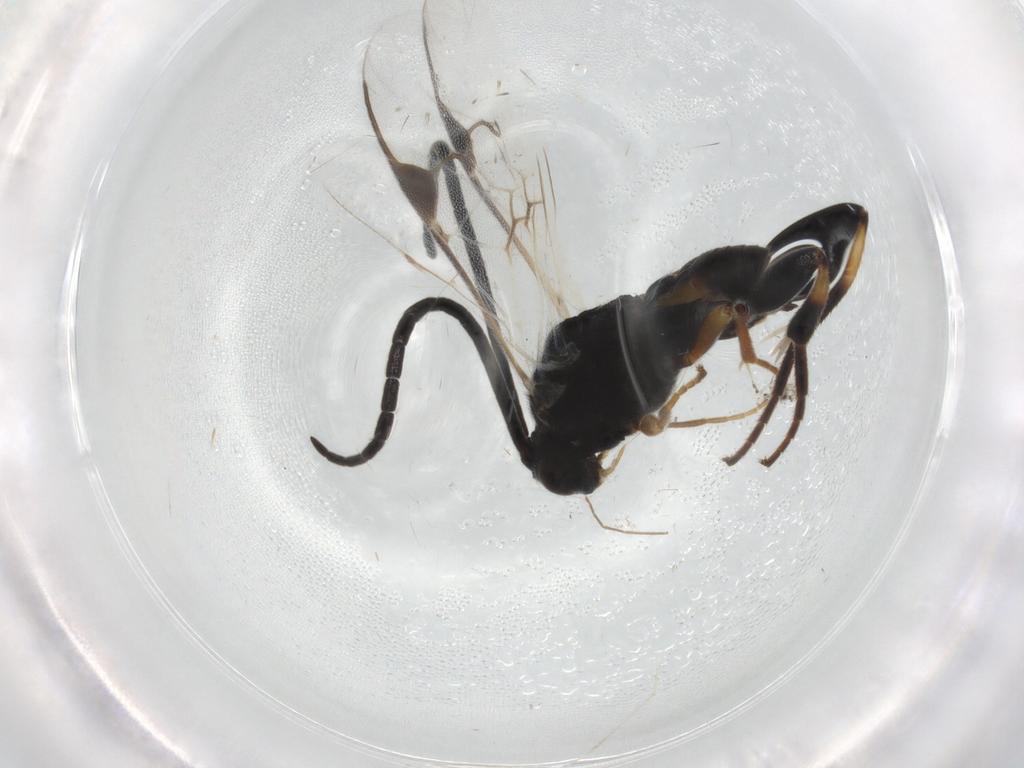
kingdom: Animalia
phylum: Arthropoda
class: Insecta
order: Hymenoptera
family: Braconidae
